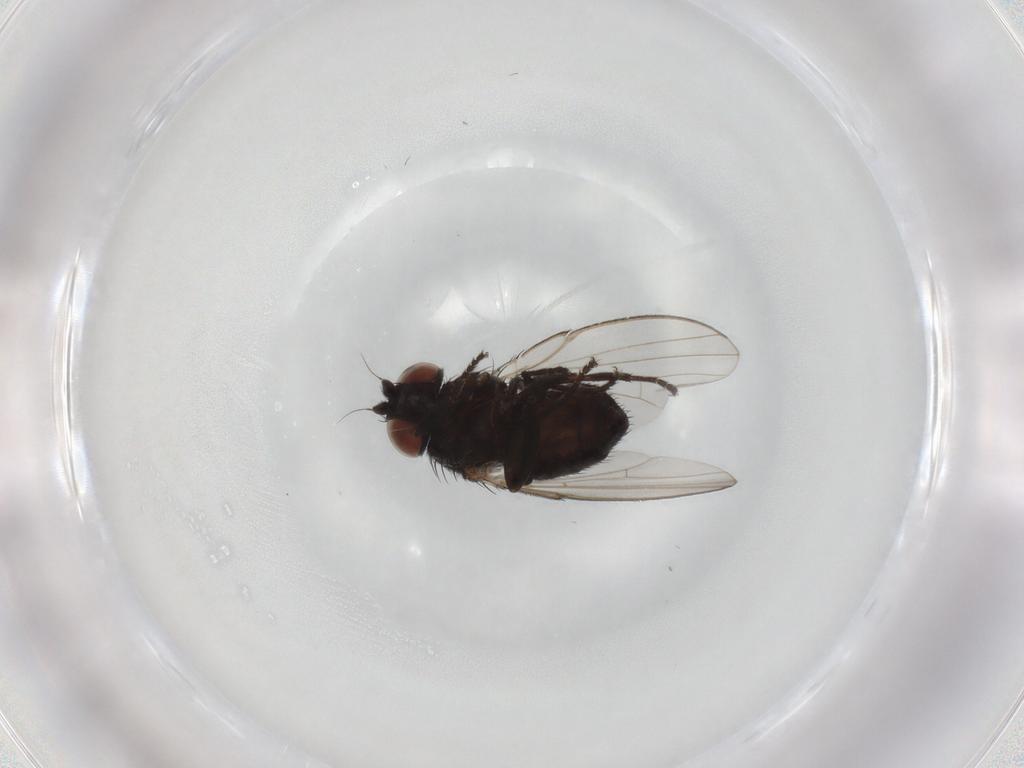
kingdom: Animalia
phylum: Arthropoda
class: Insecta
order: Diptera
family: Milichiidae
